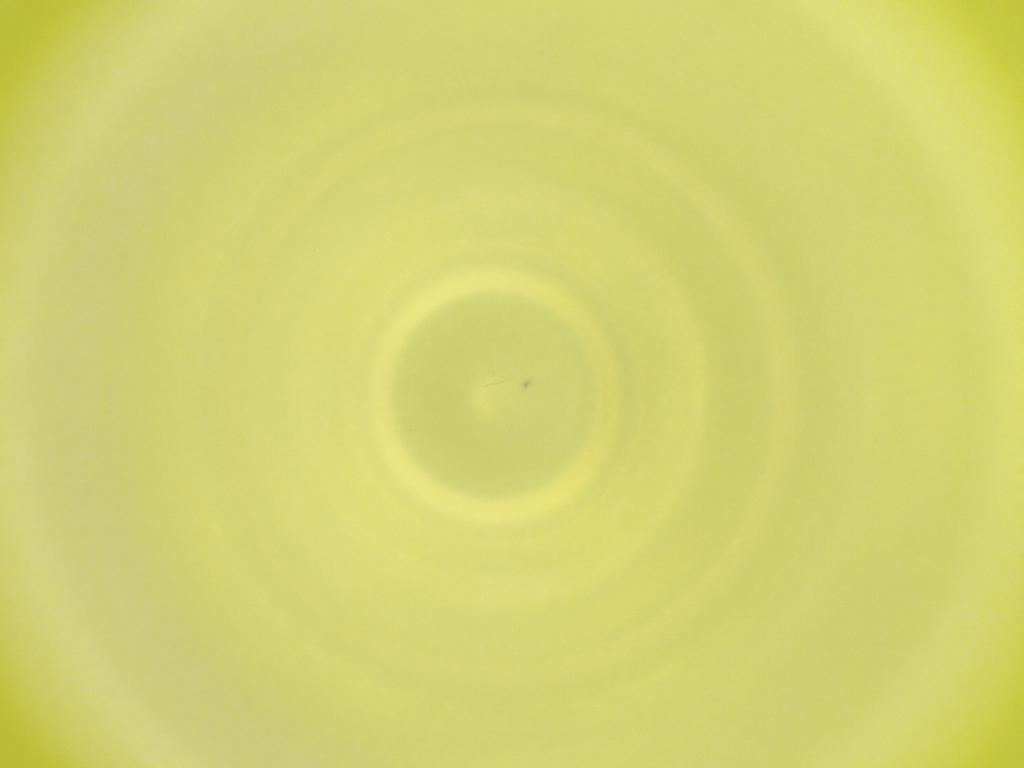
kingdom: Animalia
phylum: Arthropoda
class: Insecta
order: Diptera
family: Cecidomyiidae
